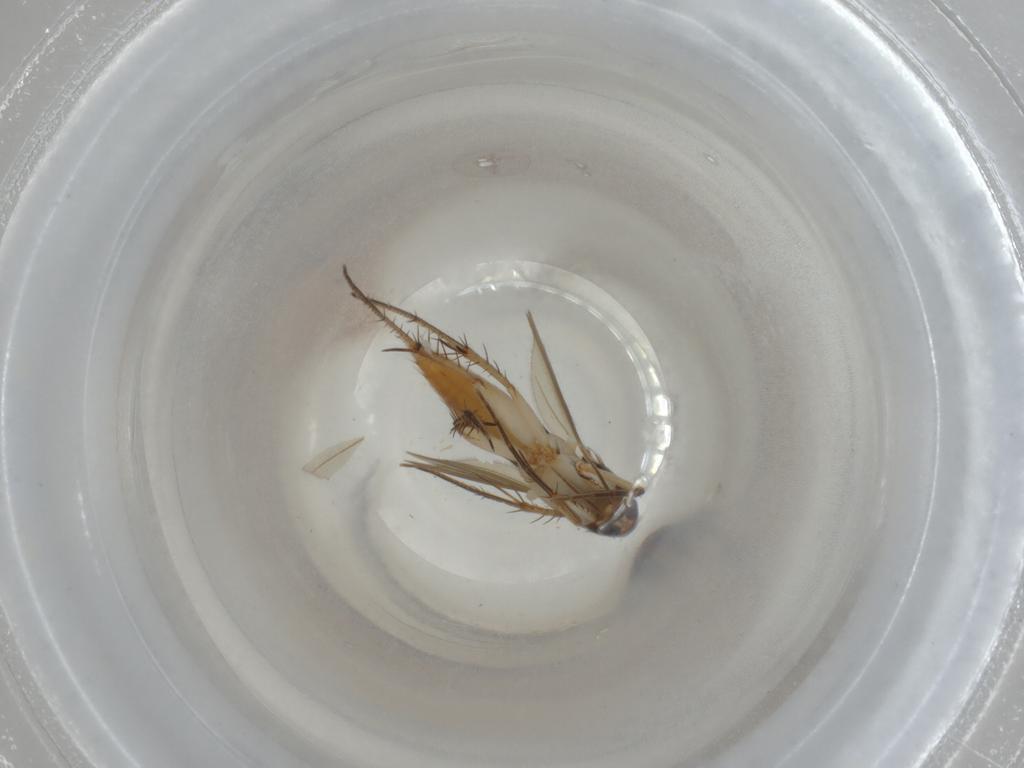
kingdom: Animalia
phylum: Arthropoda
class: Insecta
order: Diptera
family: Mycetophilidae
